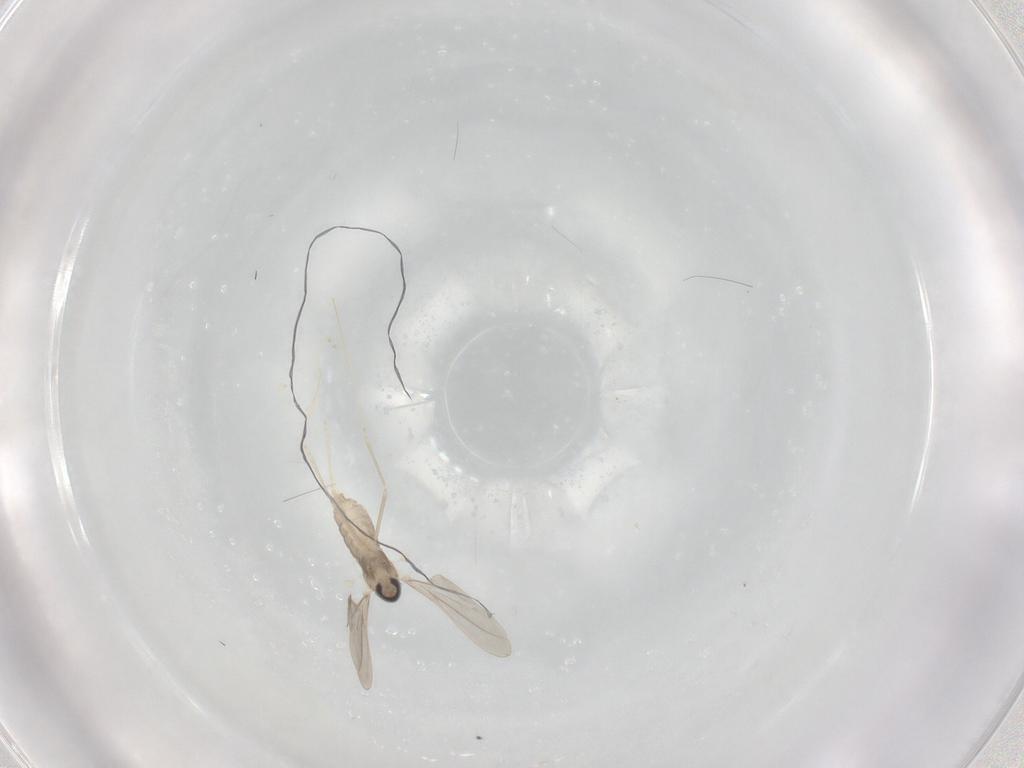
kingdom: Animalia
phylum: Arthropoda
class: Insecta
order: Diptera
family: Cecidomyiidae
